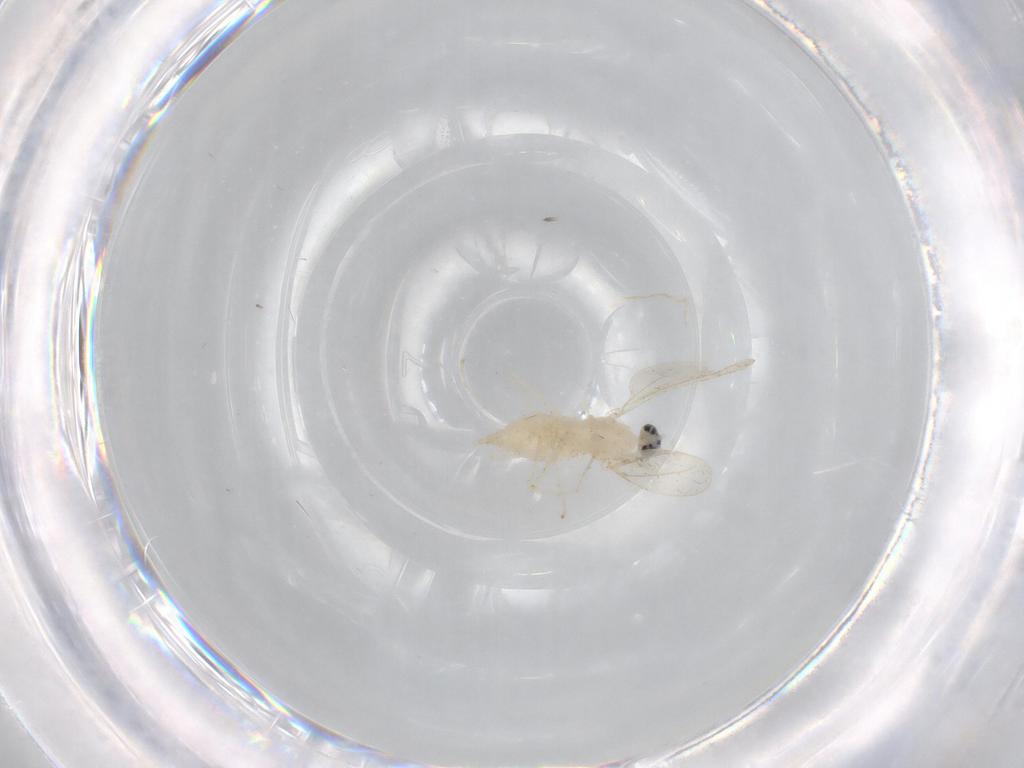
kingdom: Animalia
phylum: Arthropoda
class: Insecta
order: Diptera
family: Cecidomyiidae
